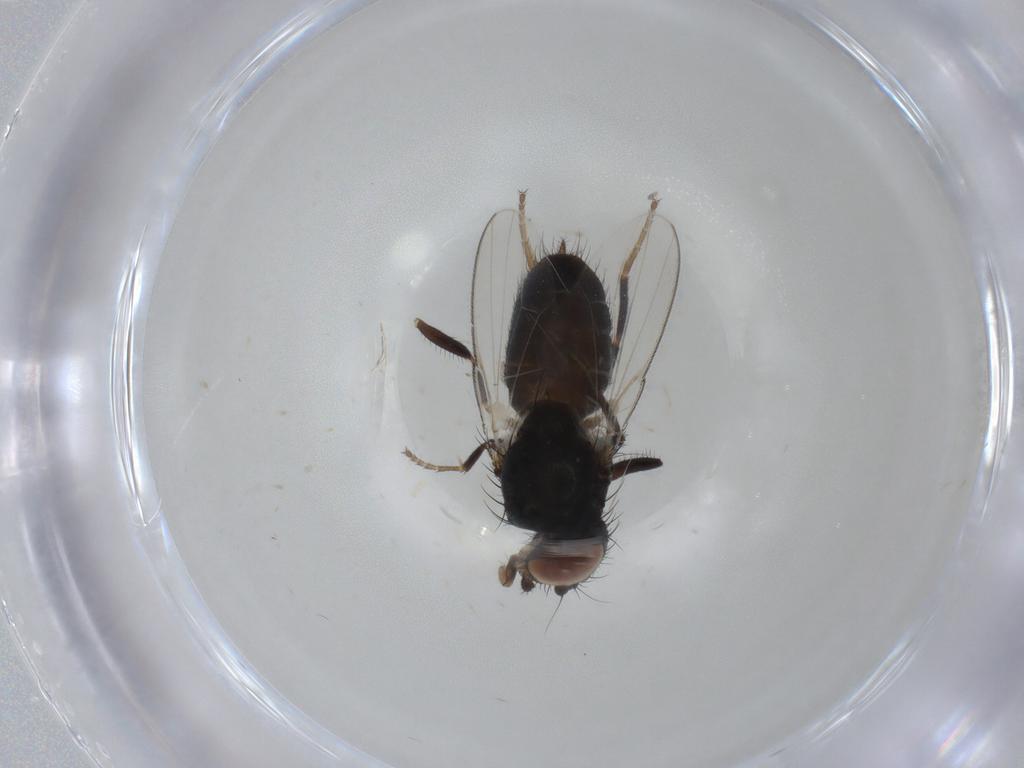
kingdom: Animalia
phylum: Arthropoda
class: Insecta
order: Diptera
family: Milichiidae
